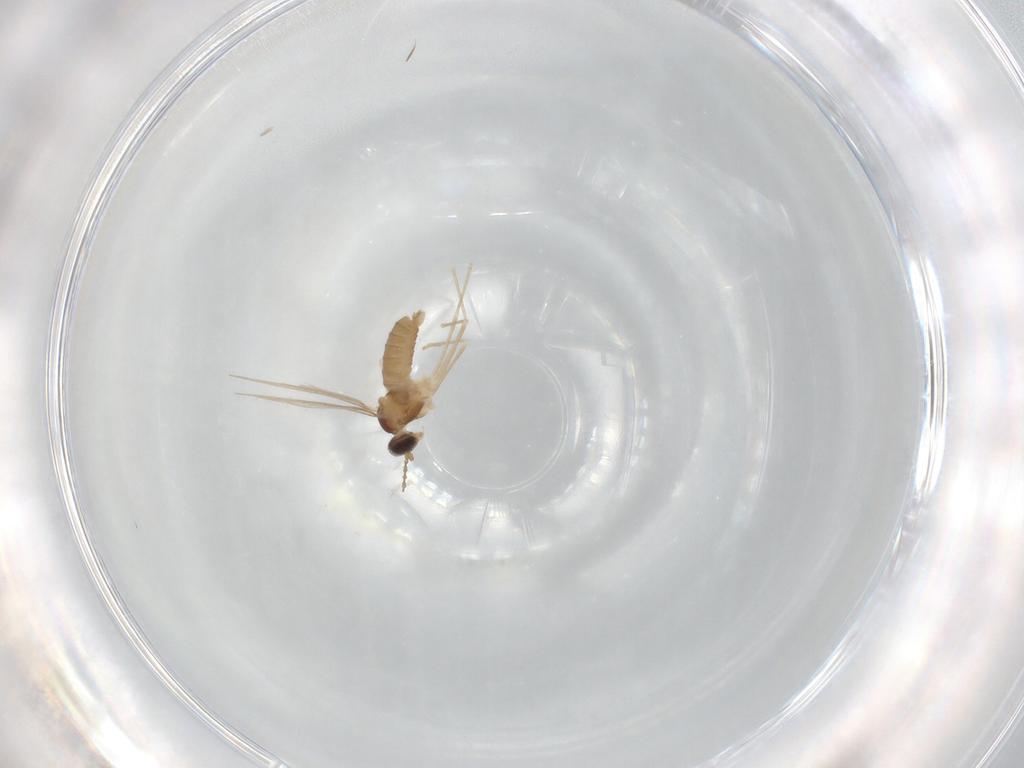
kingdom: Animalia
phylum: Arthropoda
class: Insecta
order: Diptera
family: Cecidomyiidae
